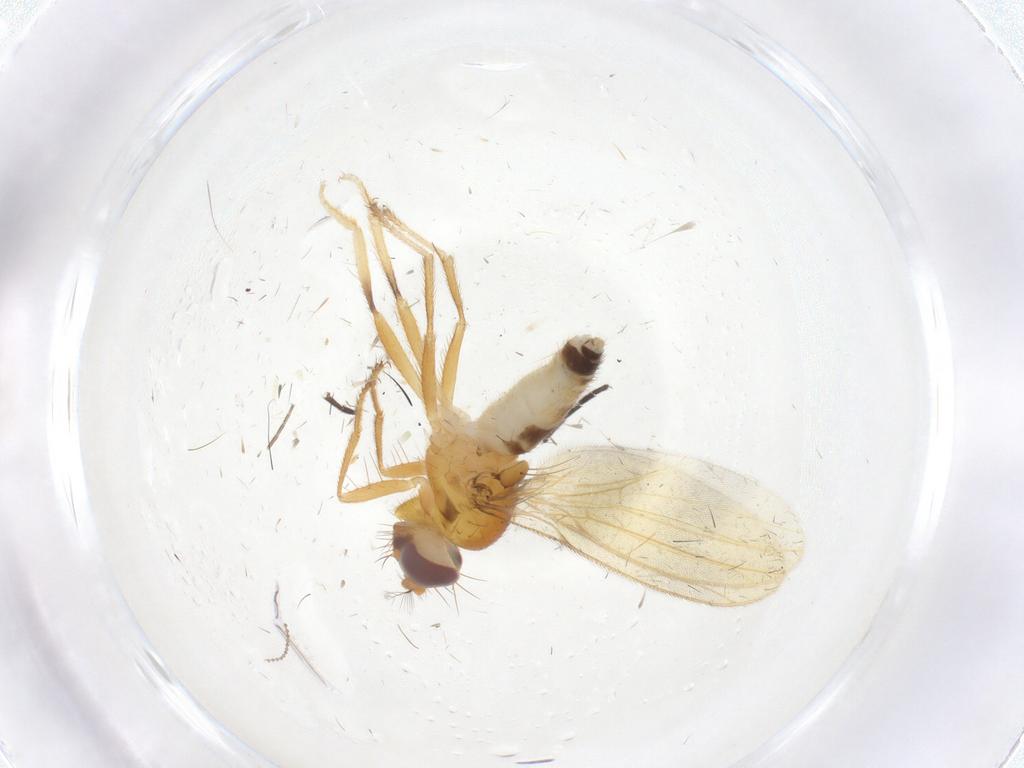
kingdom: Animalia
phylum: Arthropoda
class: Insecta
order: Diptera
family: Periscelididae
